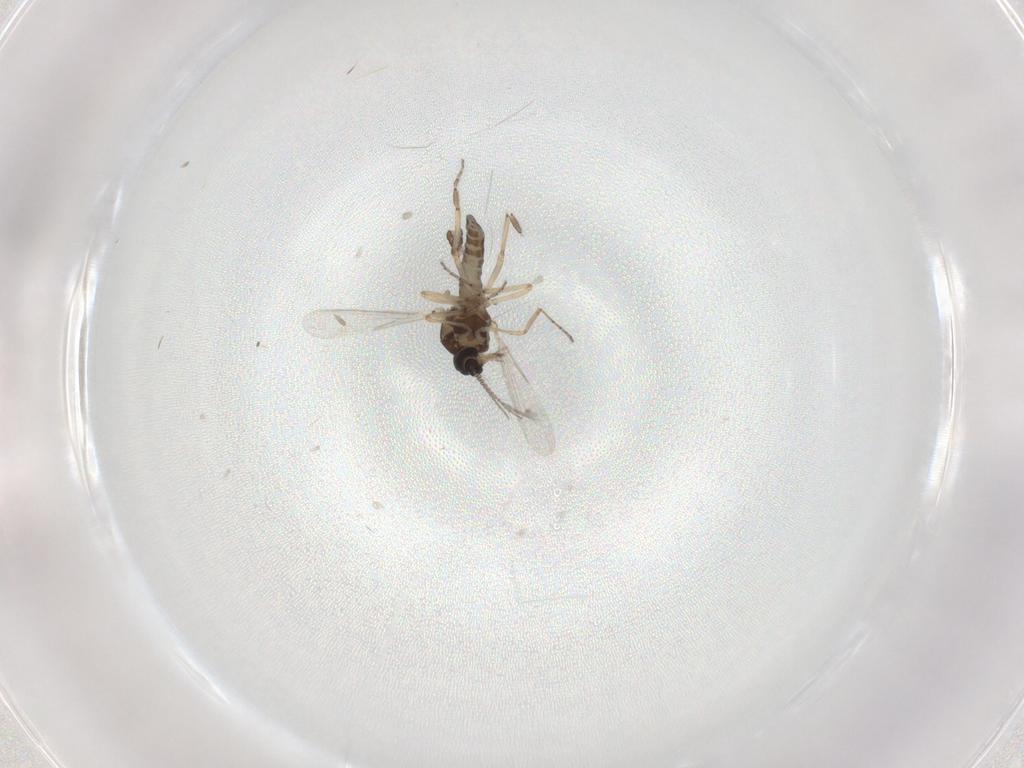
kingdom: Animalia
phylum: Arthropoda
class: Insecta
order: Diptera
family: Ceratopogonidae
